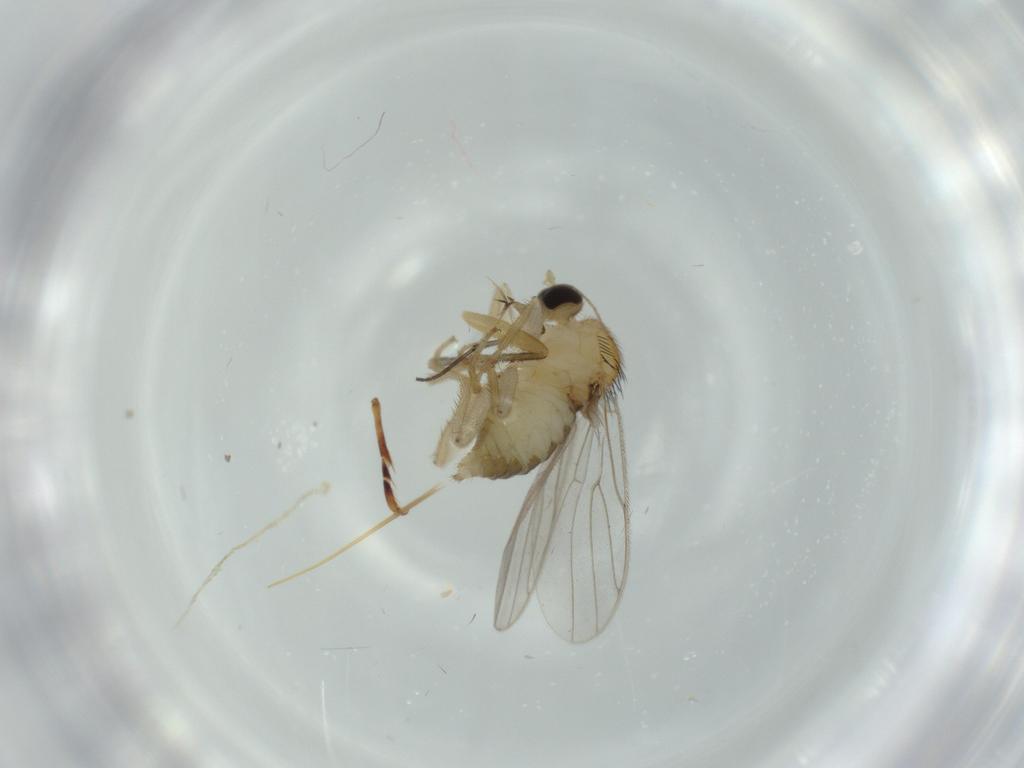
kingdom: Animalia
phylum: Arthropoda
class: Insecta
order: Diptera
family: Hybotidae
